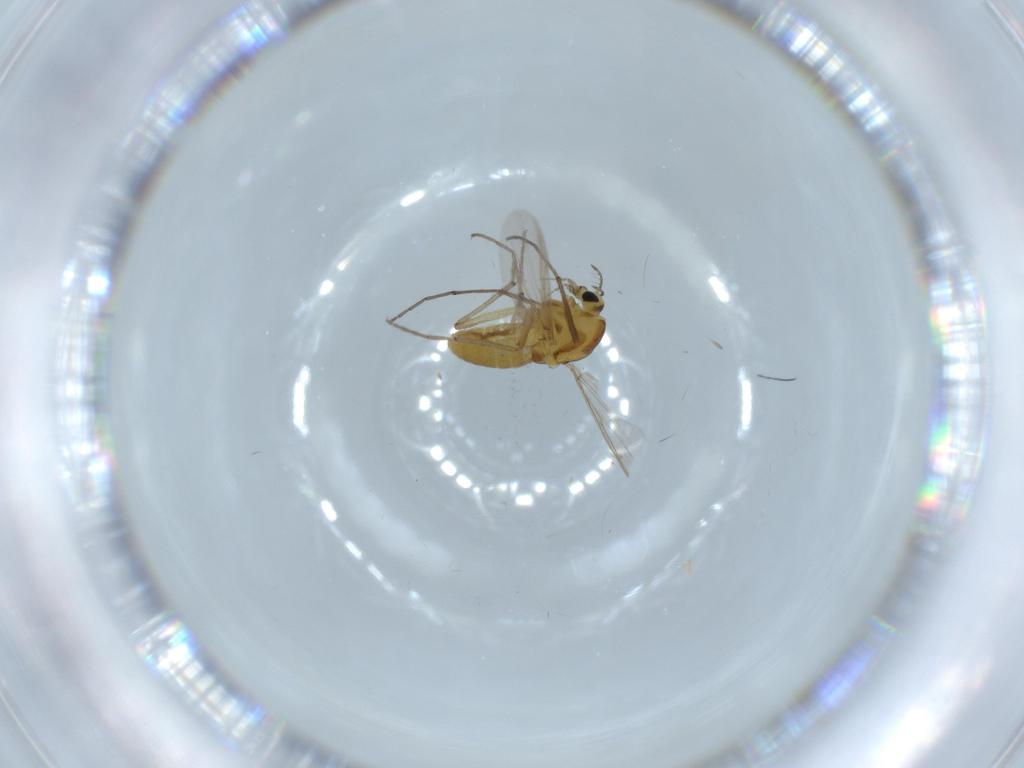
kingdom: Animalia
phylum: Arthropoda
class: Insecta
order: Diptera
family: Chironomidae
